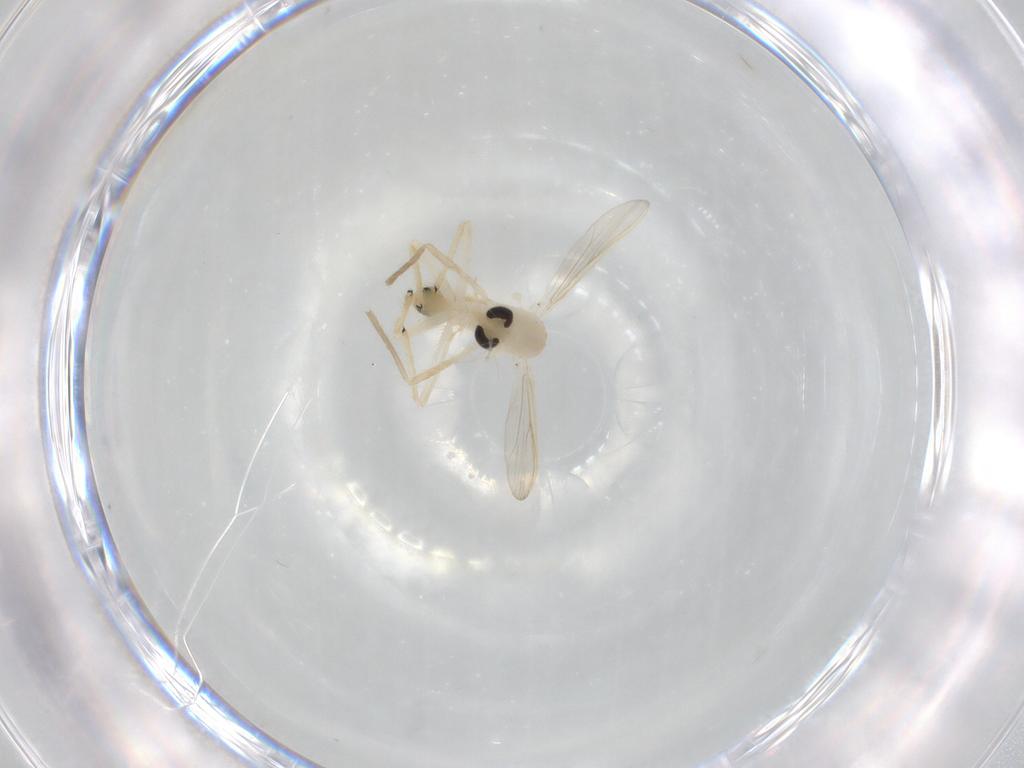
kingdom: Animalia
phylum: Arthropoda
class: Insecta
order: Diptera
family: Chironomidae
